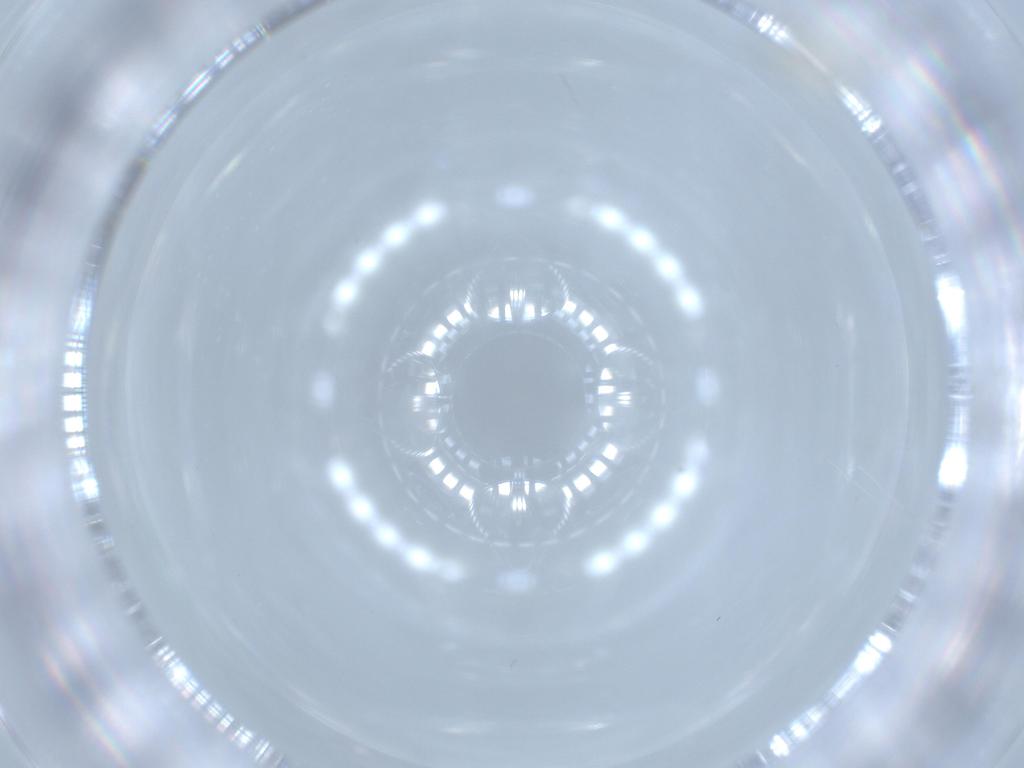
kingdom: Animalia
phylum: Arthropoda
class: Insecta
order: Diptera
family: Cecidomyiidae
